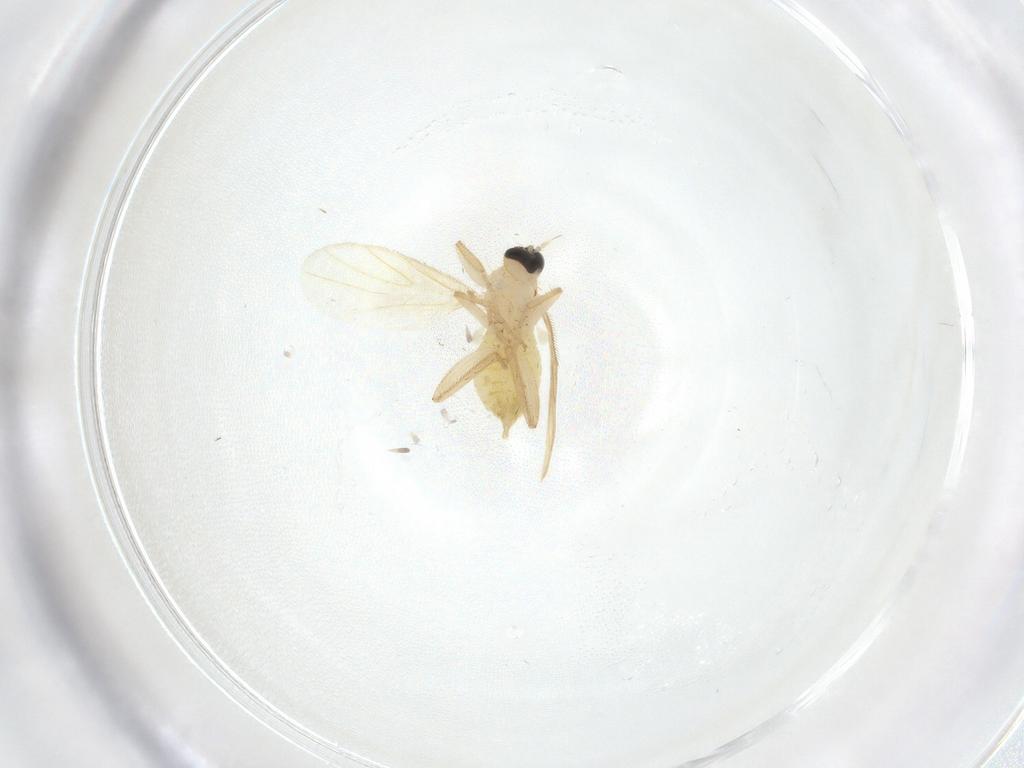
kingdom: Animalia
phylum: Arthropoda
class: Insecta
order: Diptera
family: Hybotidae
